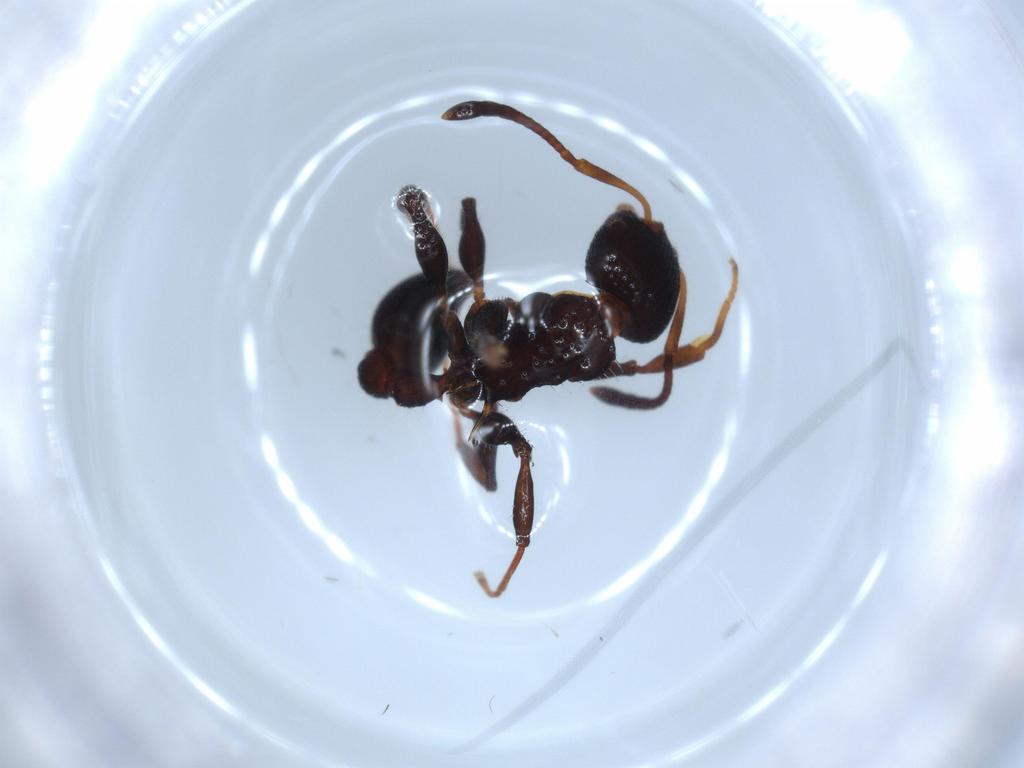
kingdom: Animalia
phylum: Arthropoda
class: Insecta
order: Hymenoptera
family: Formicidae
